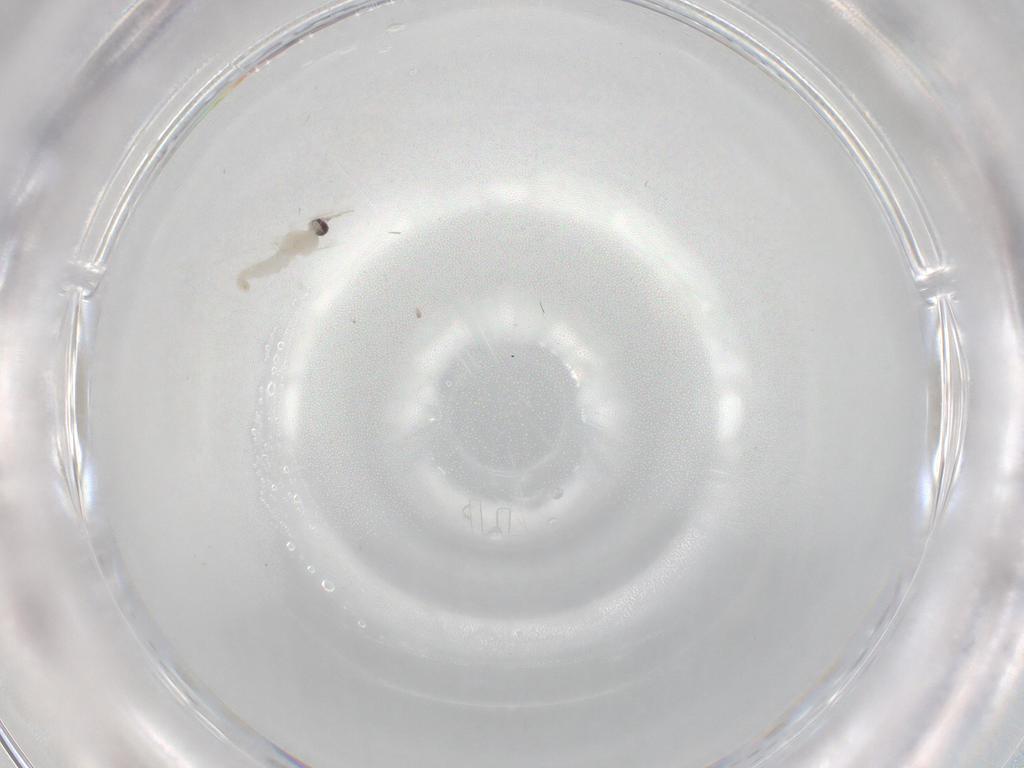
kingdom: Animalia
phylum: Arthropoda
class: Insecta
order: Diptera
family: Cecidomyiidae
